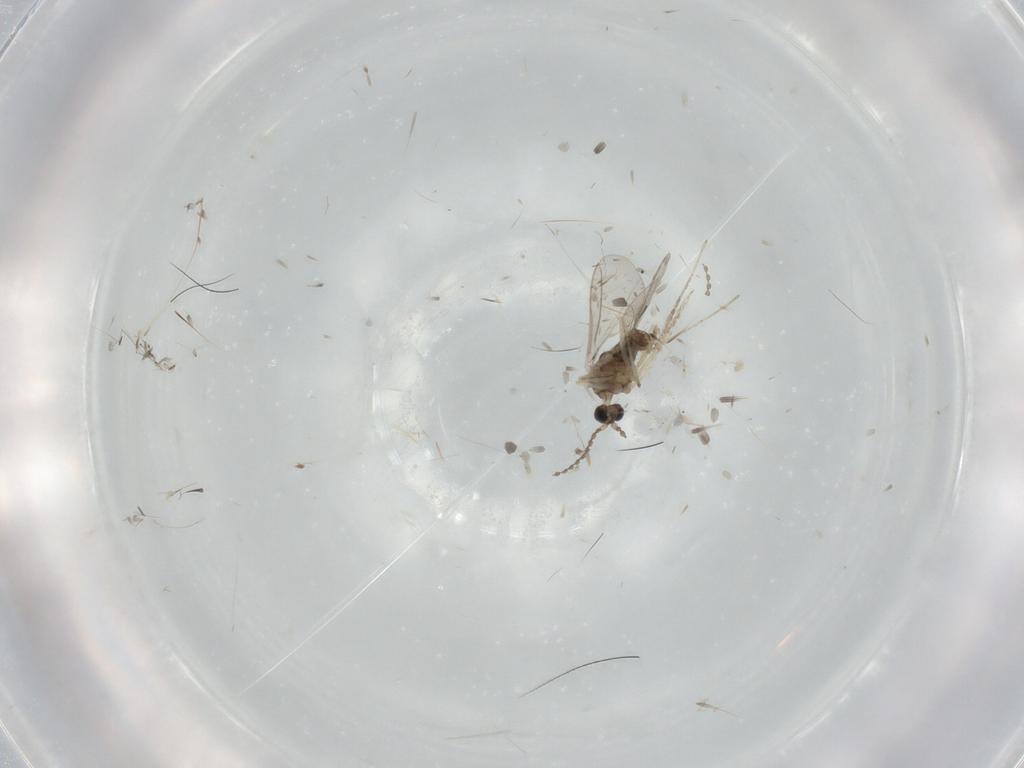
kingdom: Animalia
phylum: Arthropoda
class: Insecta
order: Diptera
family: Cecidomyiidae
